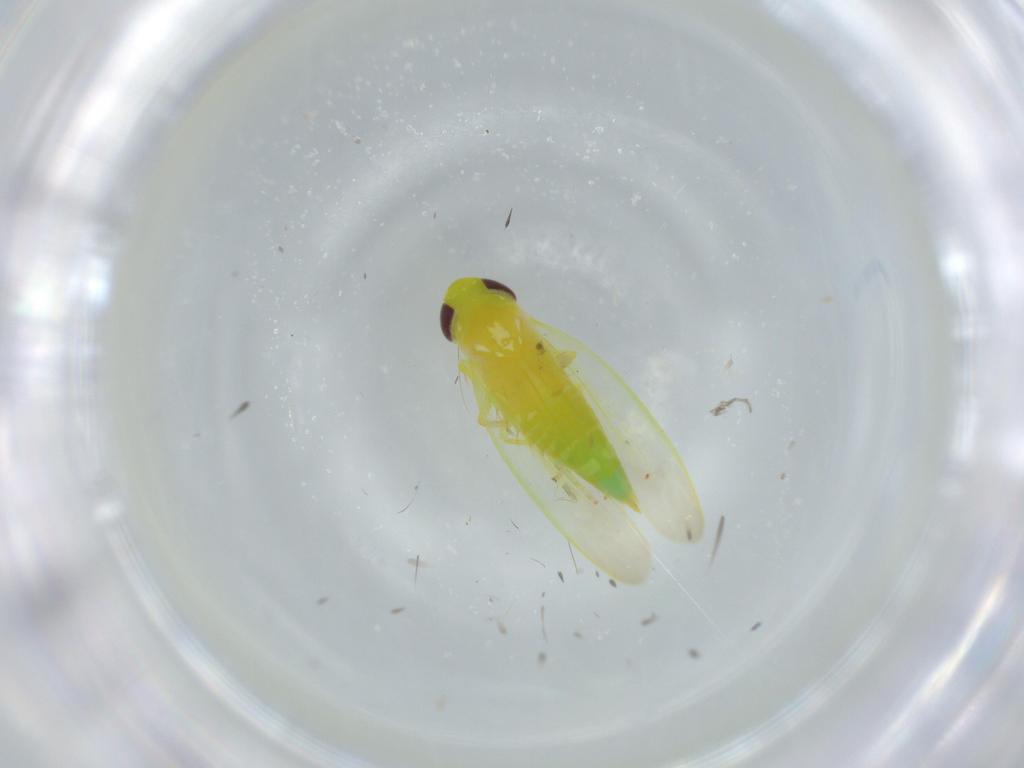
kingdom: Animalia
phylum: Arthropoda
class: Insecta
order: Hemiptera
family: Cicadellidae
